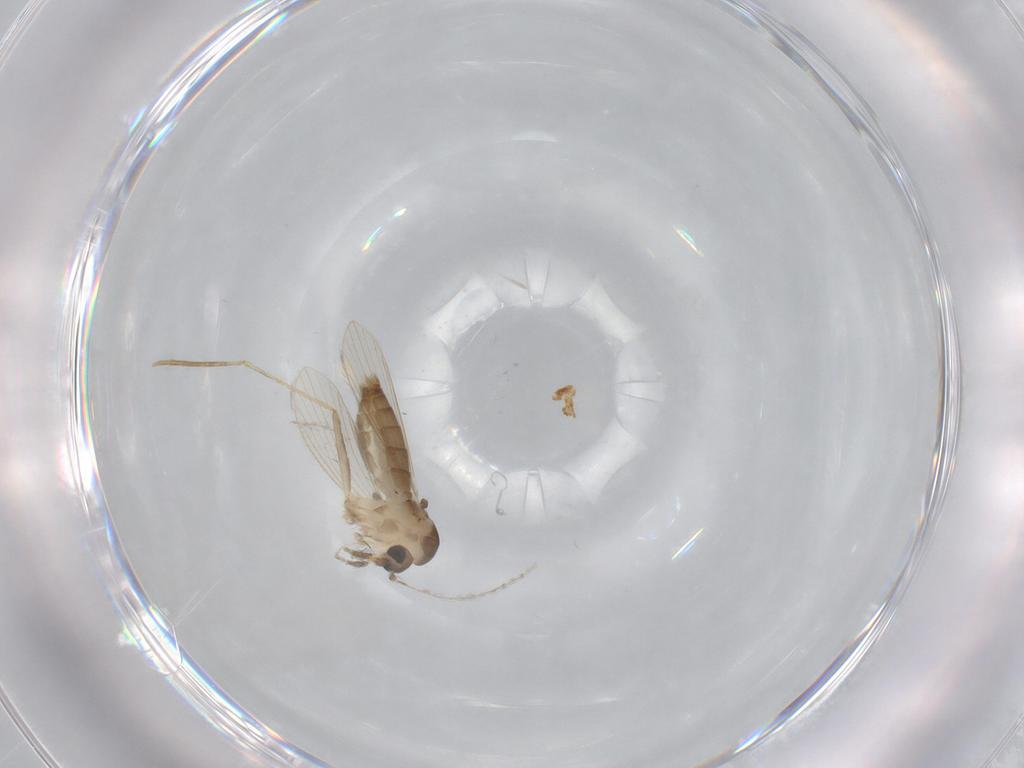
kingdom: Animalia
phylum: Arthropoda
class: Insecta
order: Diptera
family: Psychodidae
